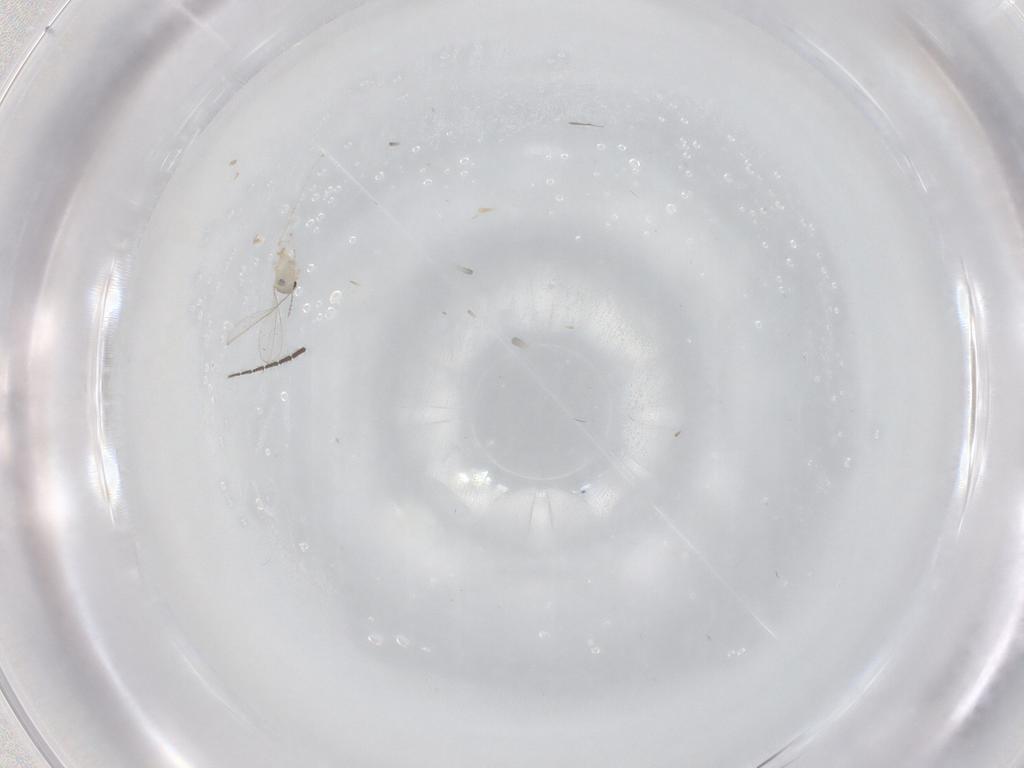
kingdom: Animalia
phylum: Arthropoda
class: Insecta
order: Diptera
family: Cecidomyiidae
